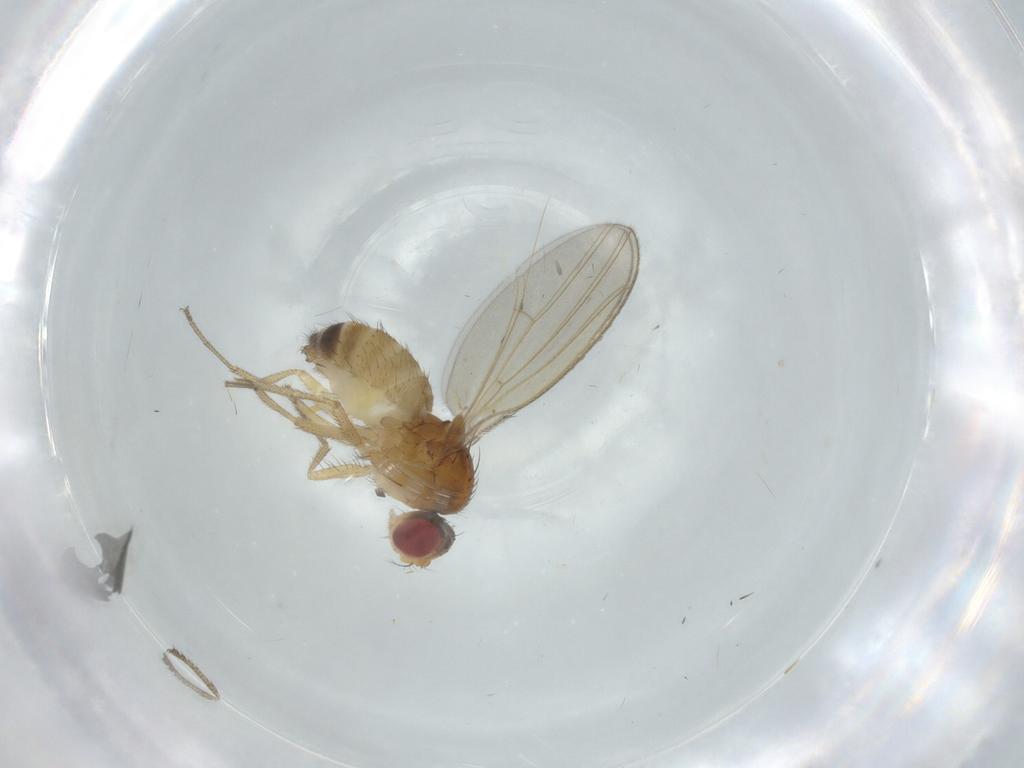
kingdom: Animalia
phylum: Arthropoda
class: Insecta
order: Diptera
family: Drosophilidae
